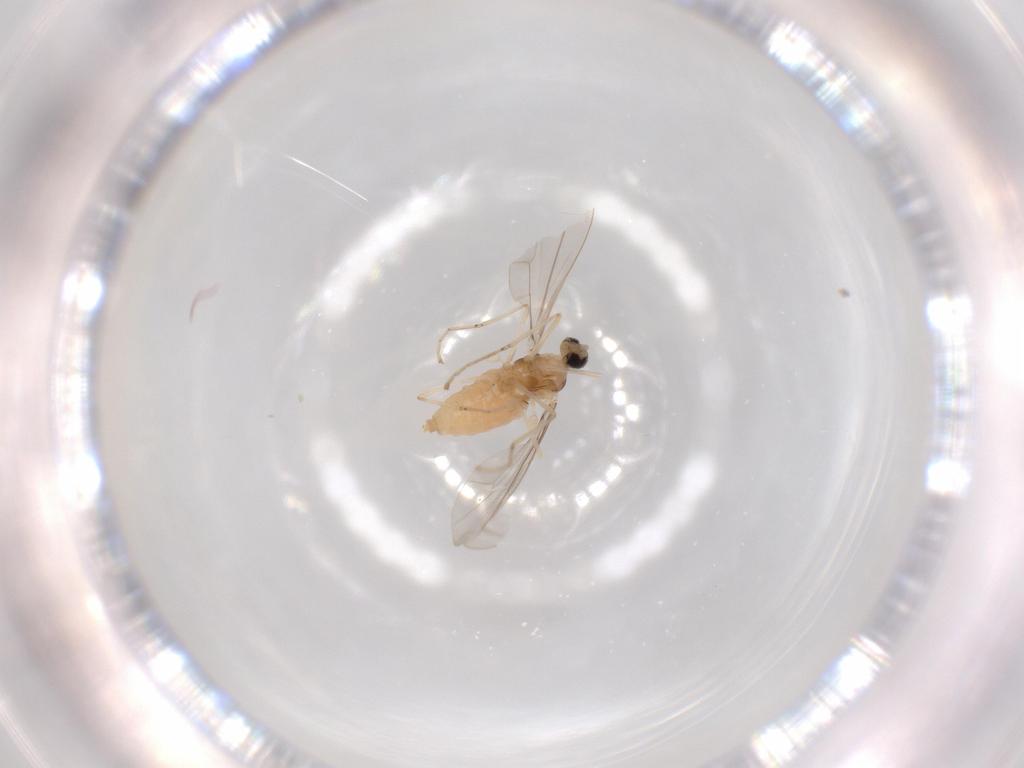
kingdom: Animalia
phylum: Arthropoda
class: Insecta
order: Diptera
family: Cecidomyiidae
